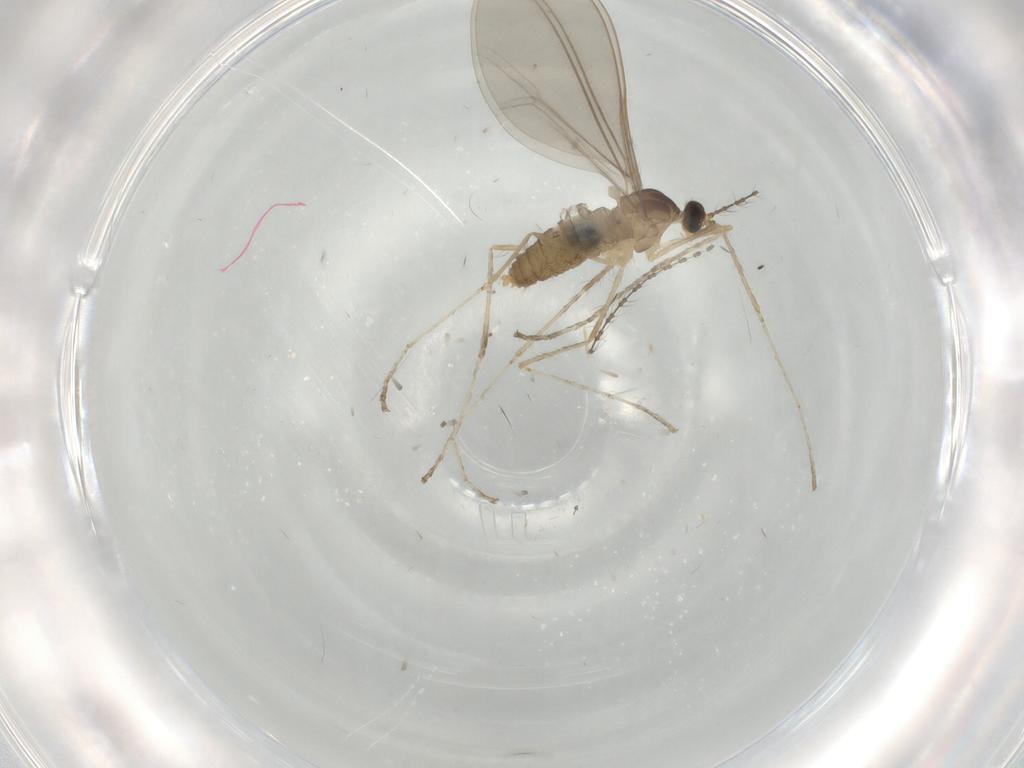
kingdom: Animalia
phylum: Arthropoda
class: Insecta
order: Diptera
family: Cecidomyiidae
